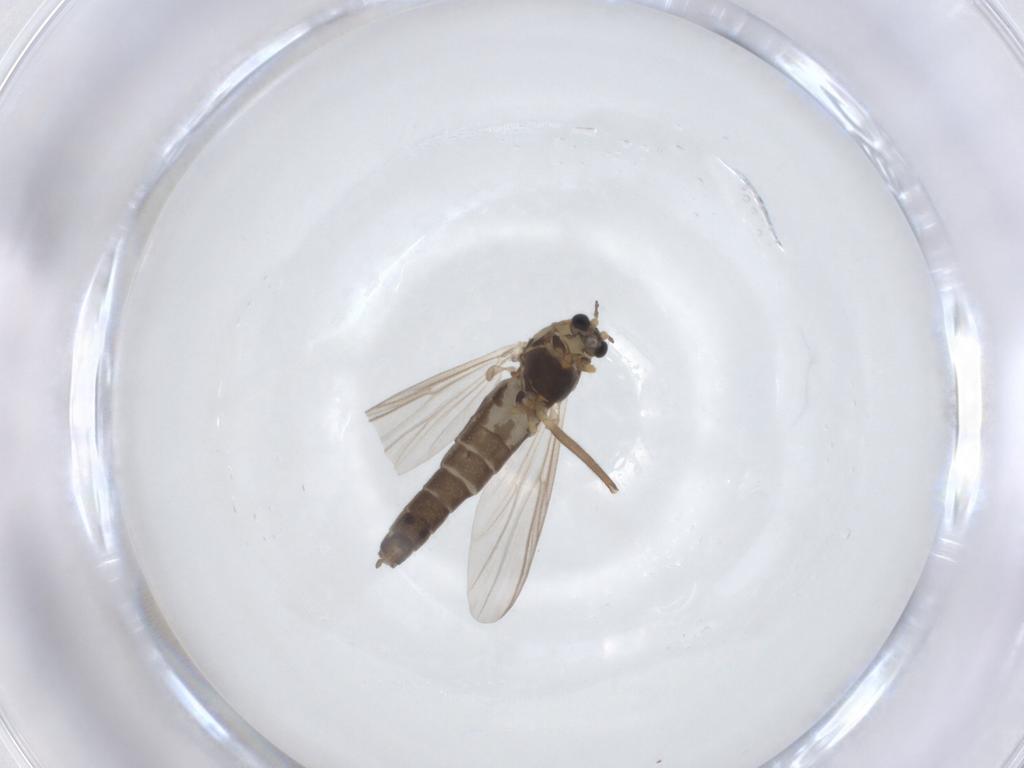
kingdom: Animalia
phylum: Arthropoda
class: Insecta
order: Diptera
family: Chironomidae
